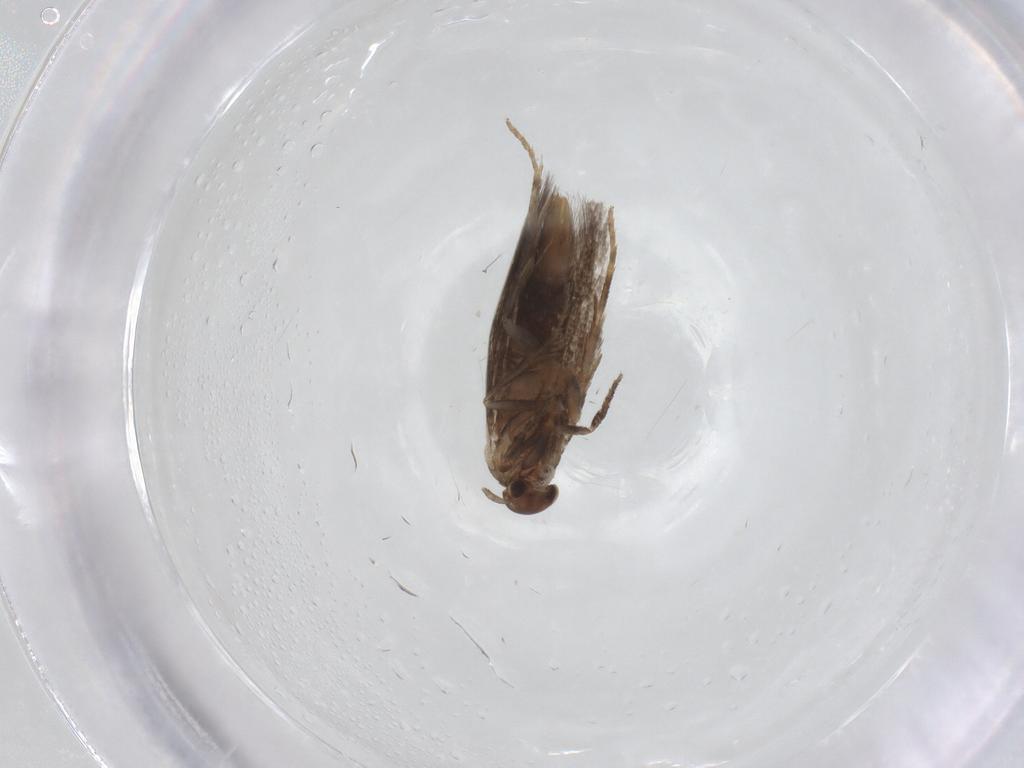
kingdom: Animalia
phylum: Arthropoda
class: Insecta
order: Lepidoptera
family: Elachistidae
